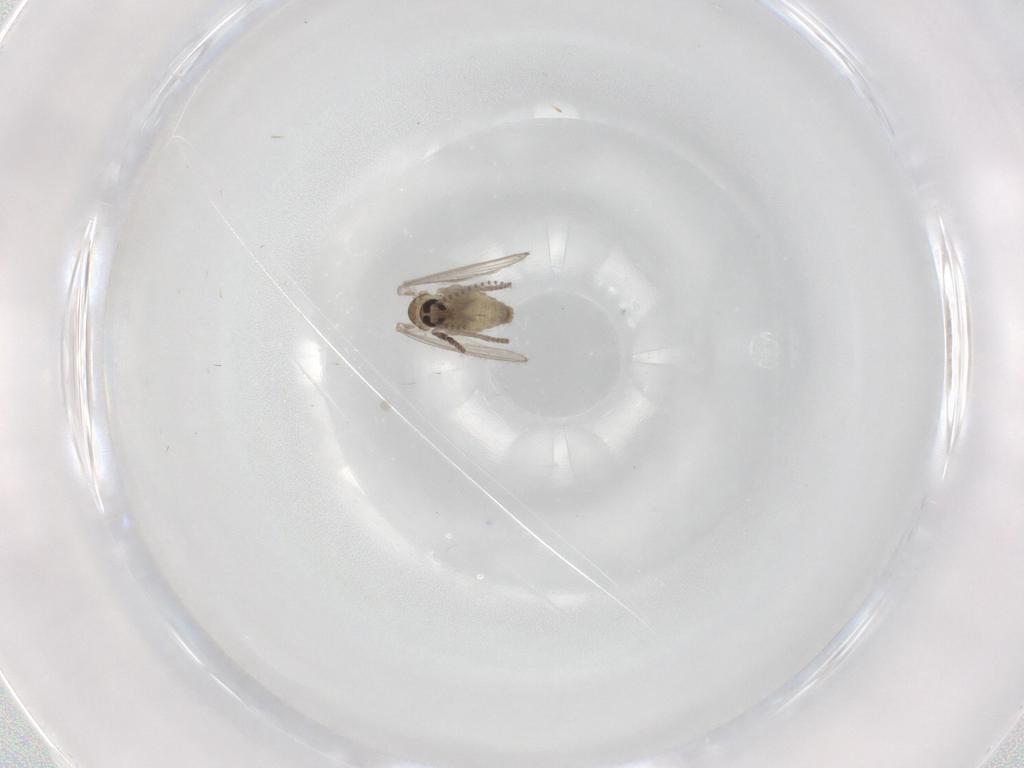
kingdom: Animalia
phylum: Arthropoda
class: Insecta
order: Diptera
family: Psychodidae
